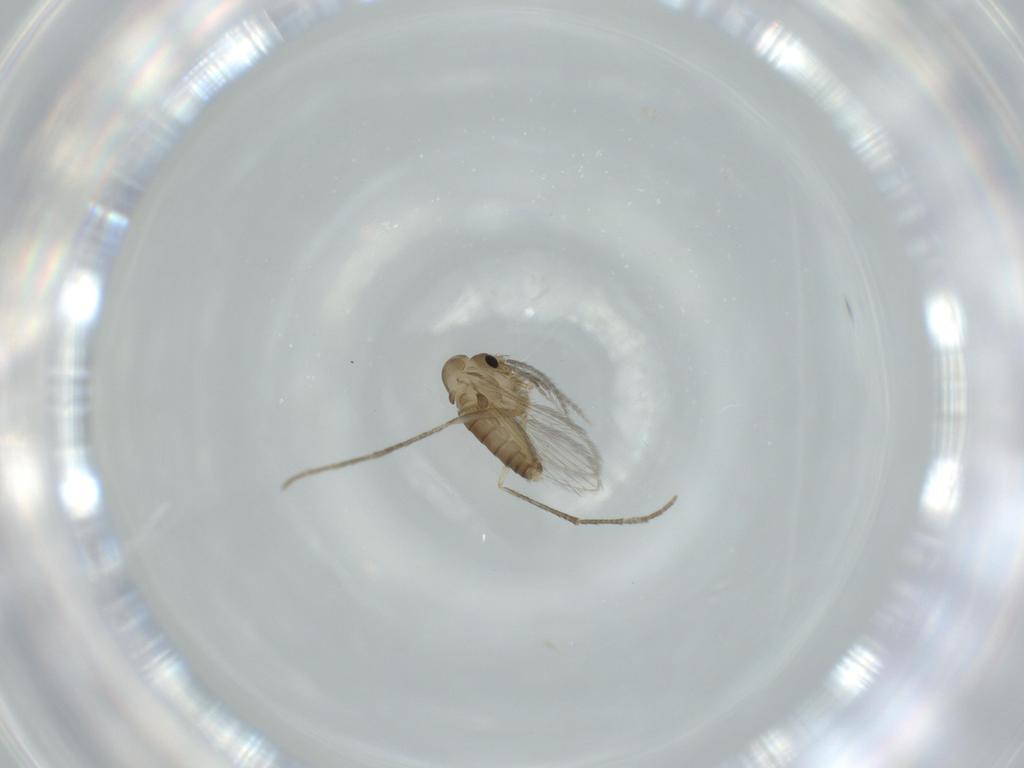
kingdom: Animalia
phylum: Arthropoda
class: Insecta
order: Diptera
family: Psychodidae
